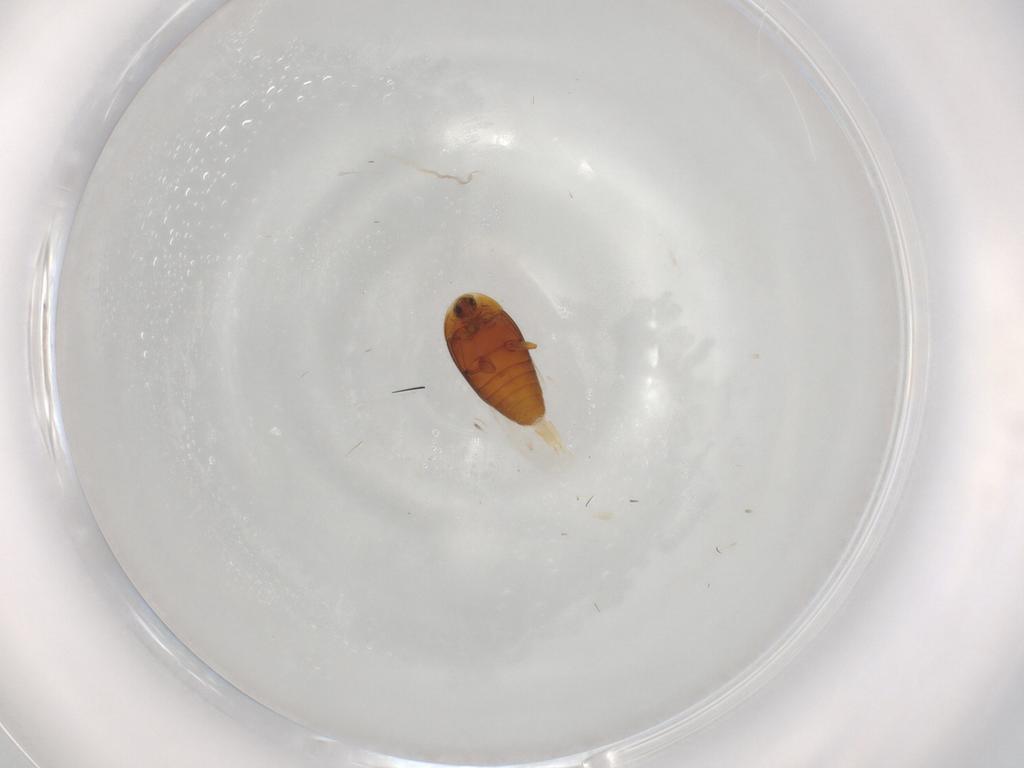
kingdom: Animalia
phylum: Arthropoda
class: Insecta
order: Coleoptera
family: Corylophidae
